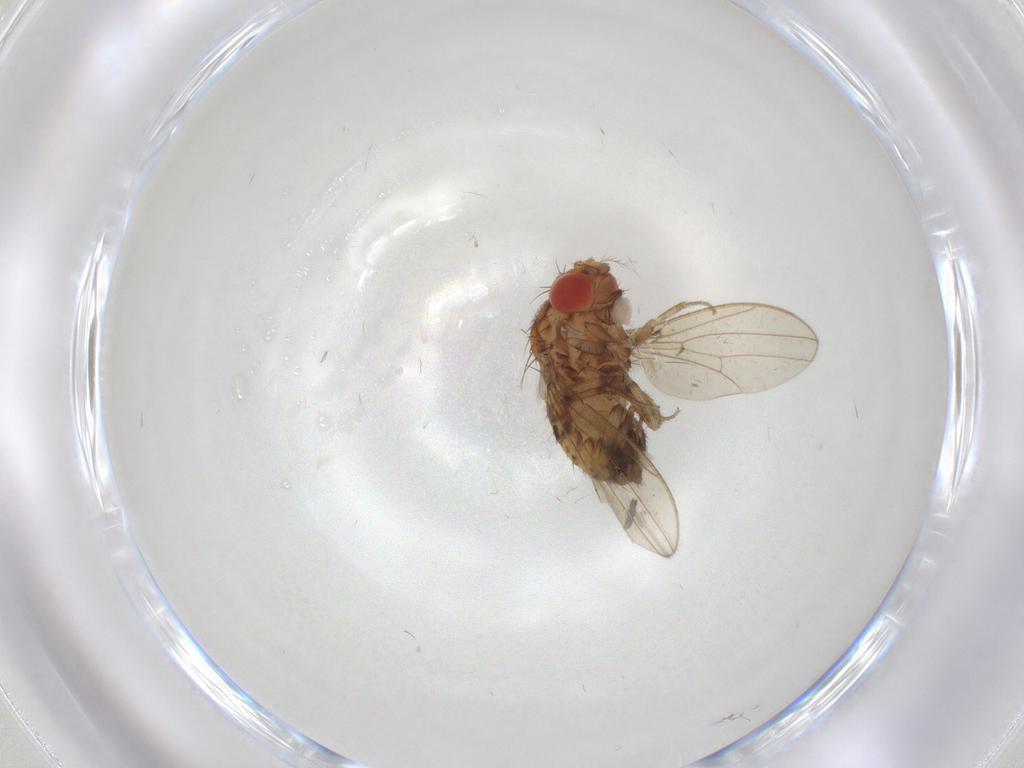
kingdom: Animalia
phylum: Arthropoda
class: Insecta
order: Diptera
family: Drosophilidae
